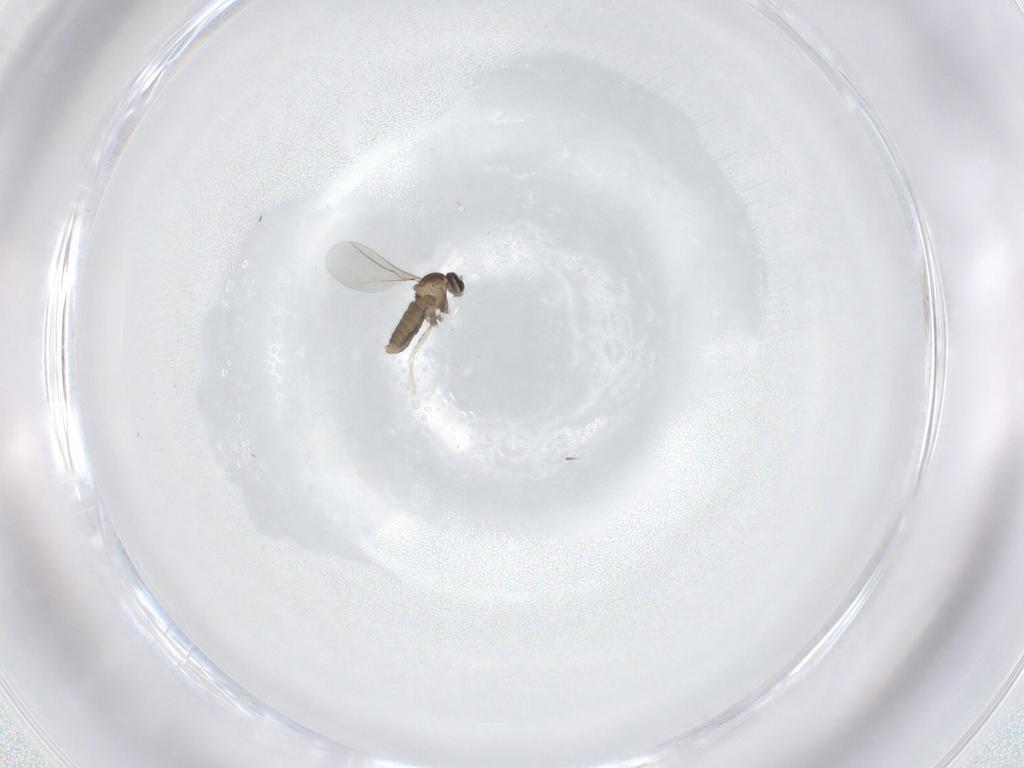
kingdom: Animalia
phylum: Arthropoda
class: Insecta
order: Diptera
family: Cecidomyiidae
